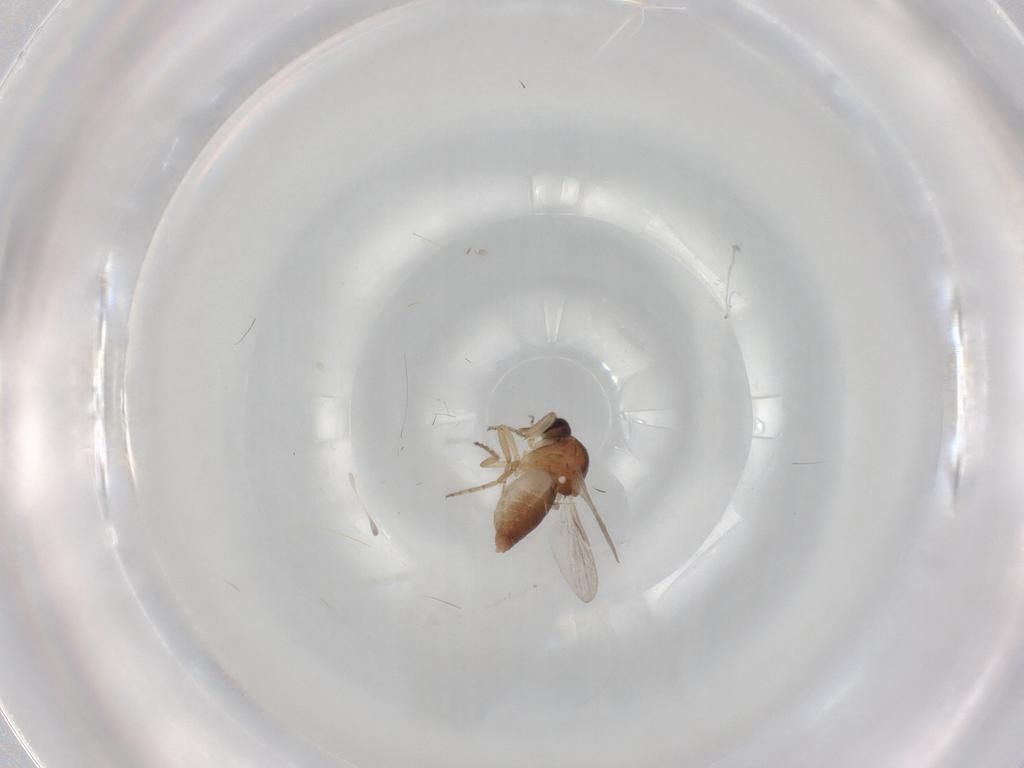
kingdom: Animalia
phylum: Arthropoda
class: Insecta
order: Diptera
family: Ceratopogonidae
